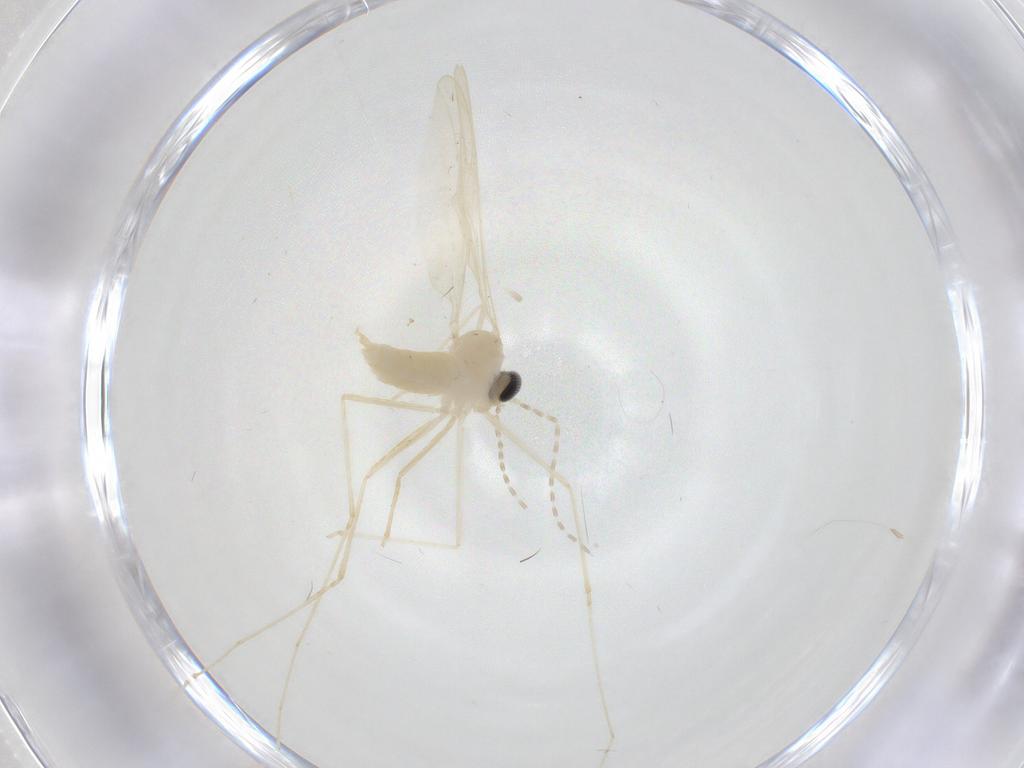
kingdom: Animalia
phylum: Arthropoda
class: Insecta
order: Diptera
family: Cecidomyiidae
